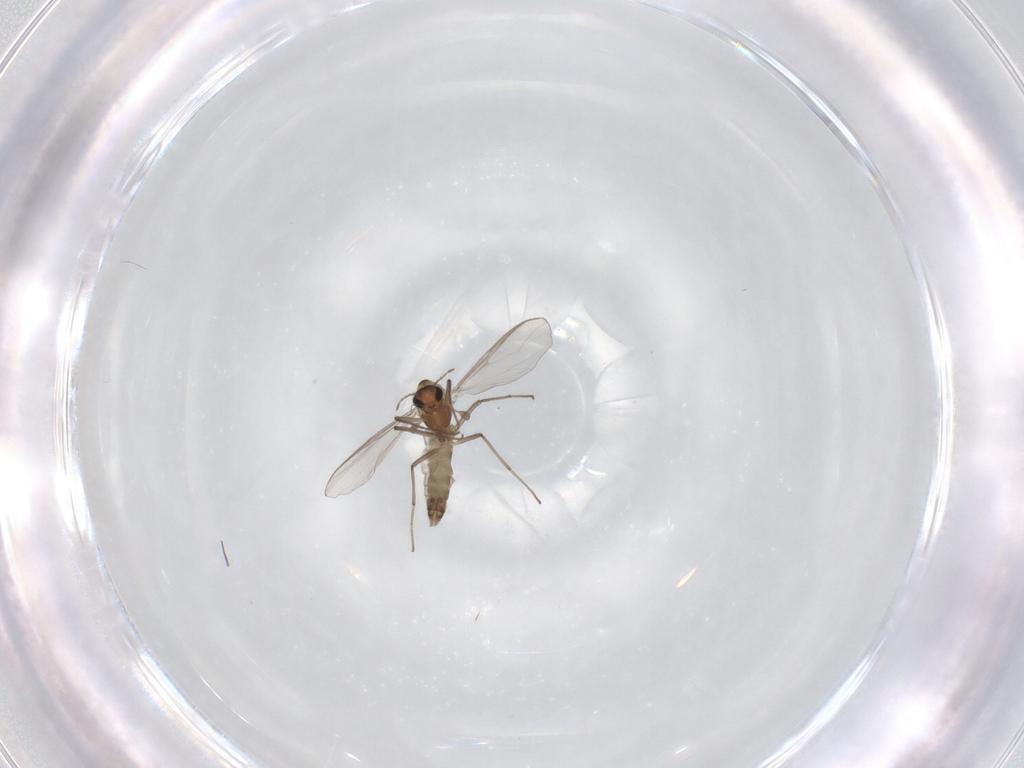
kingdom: Animalia
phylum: Arthropoda
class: Insecta
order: Diptera
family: Chironomidae
